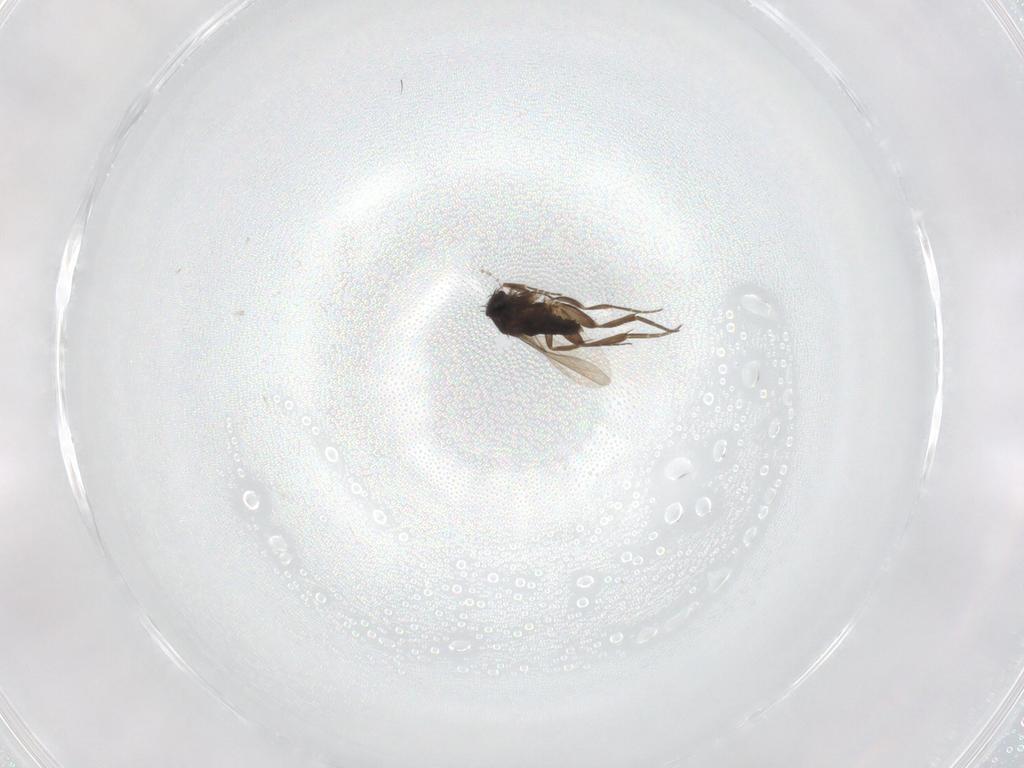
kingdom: Animalia
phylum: Arthropoda
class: Insecta
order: Diptera
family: Phoridae
